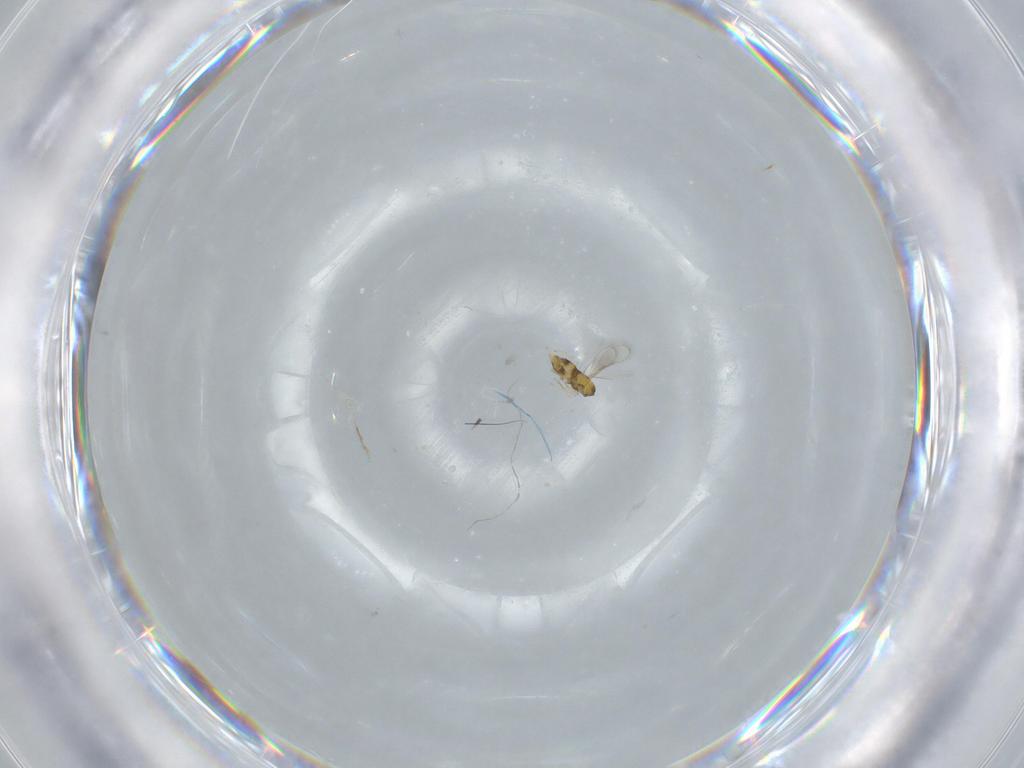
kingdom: Animalia
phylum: Arthropoda
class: Insecta
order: Hymenoptera
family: Aphelinidae
